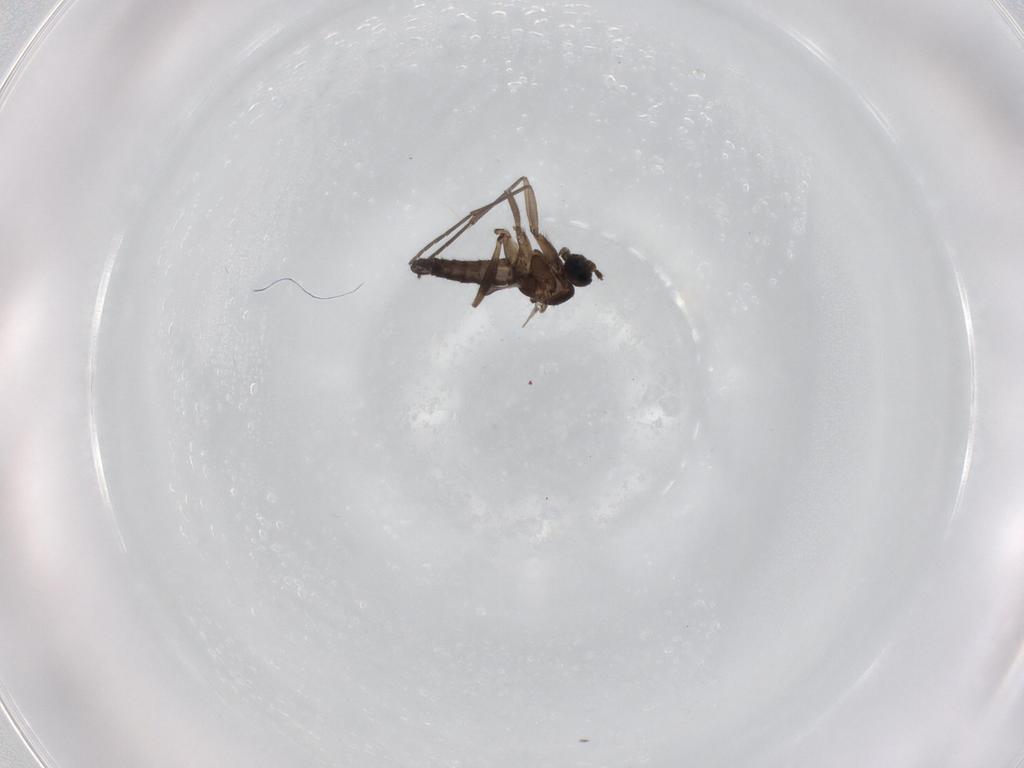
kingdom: Animalia
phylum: Arthropoda
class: Insecta
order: Diptera
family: Sciaridae
